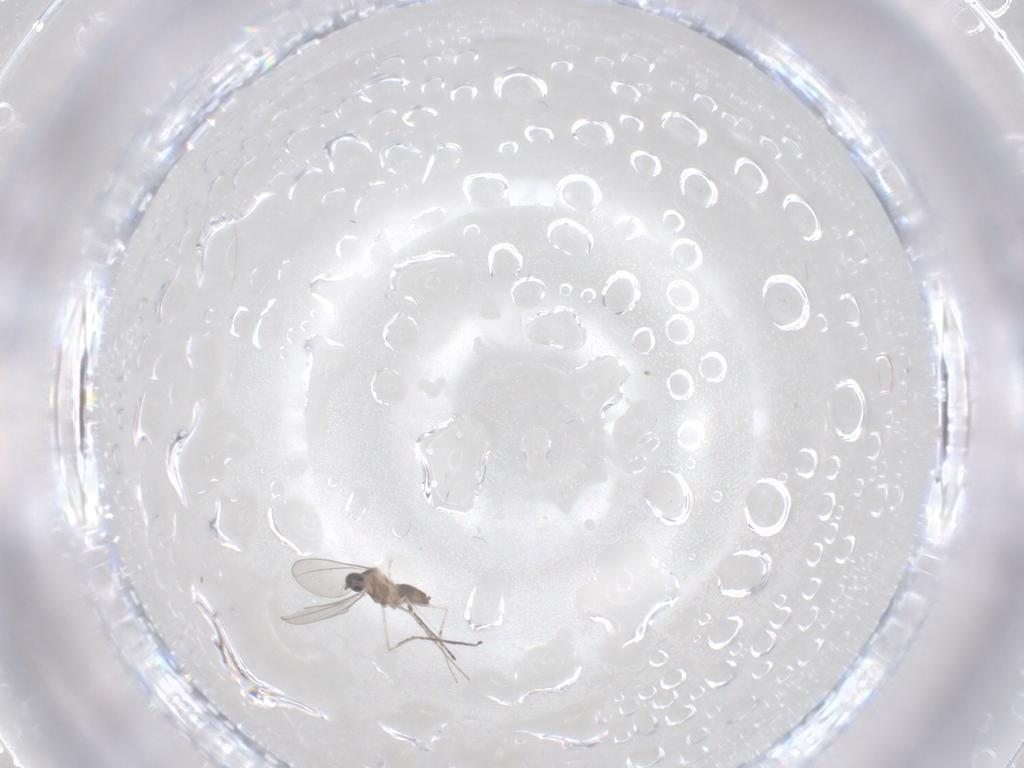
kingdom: Animalia
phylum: Arthropoda
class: Insecta
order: Diptera
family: Cecidomyiidae
